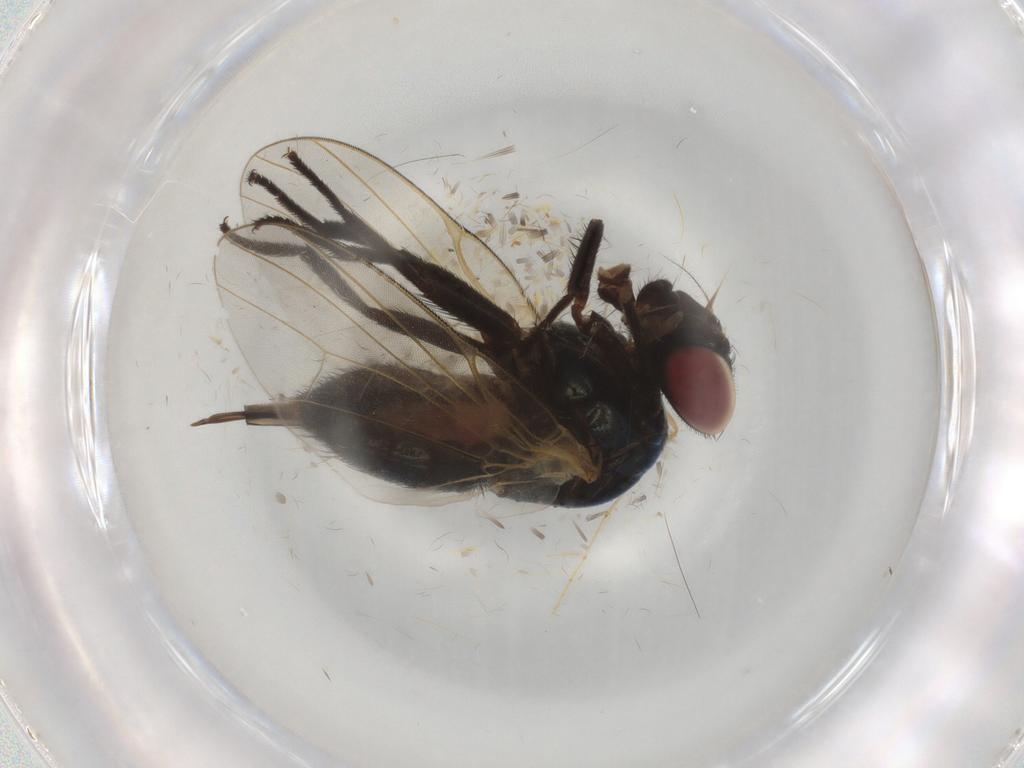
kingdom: Animalia
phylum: Arthropoda
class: Insecta
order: Diptera
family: Lonchaeidae
